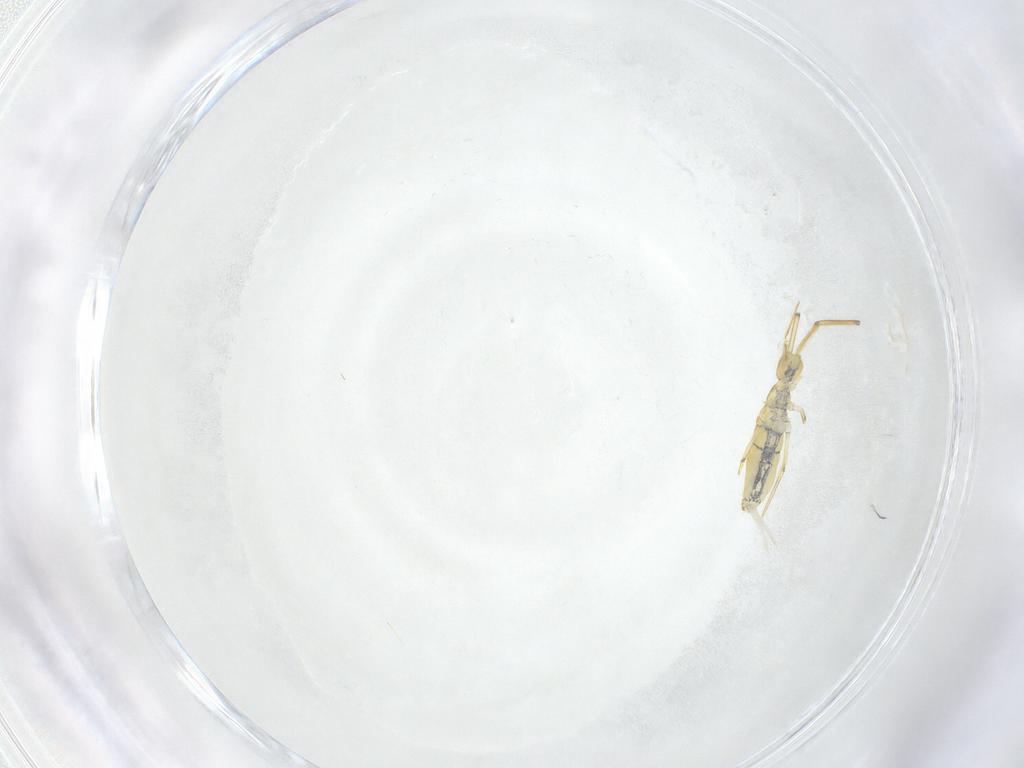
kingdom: Animalia
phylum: Arthropoda
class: Collembola
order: Entomobryomorpha
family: Paronellidae
